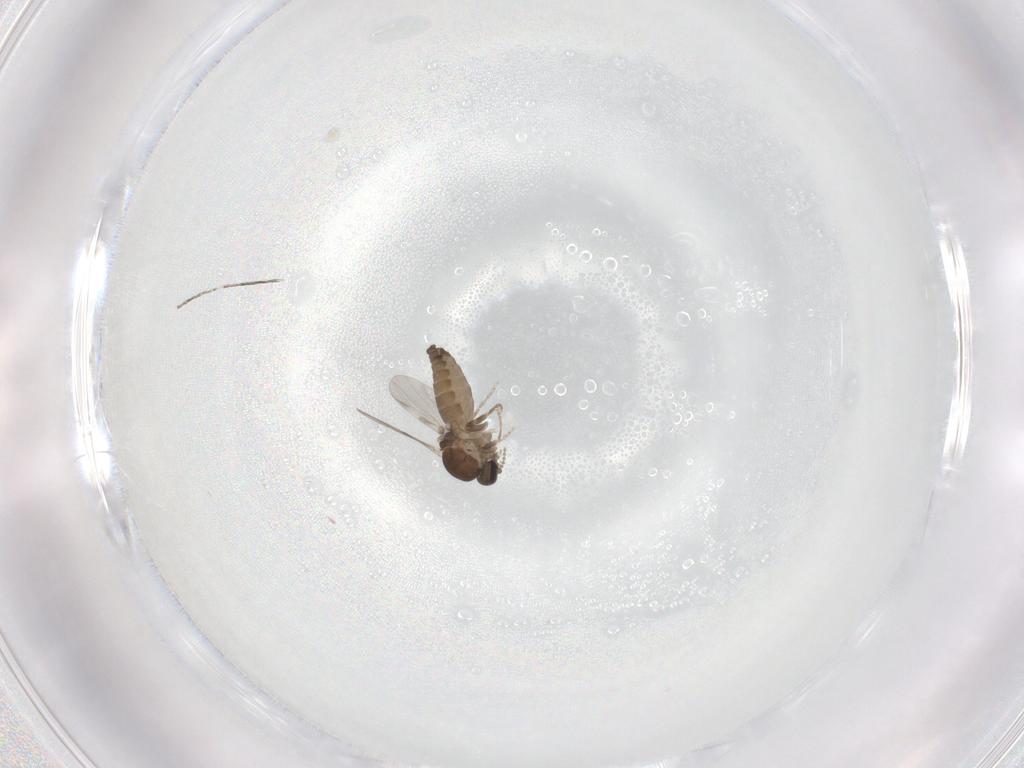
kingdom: Animalia
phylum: Arthropoda
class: Insecta
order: Diptera
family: Ceratopogonidae
